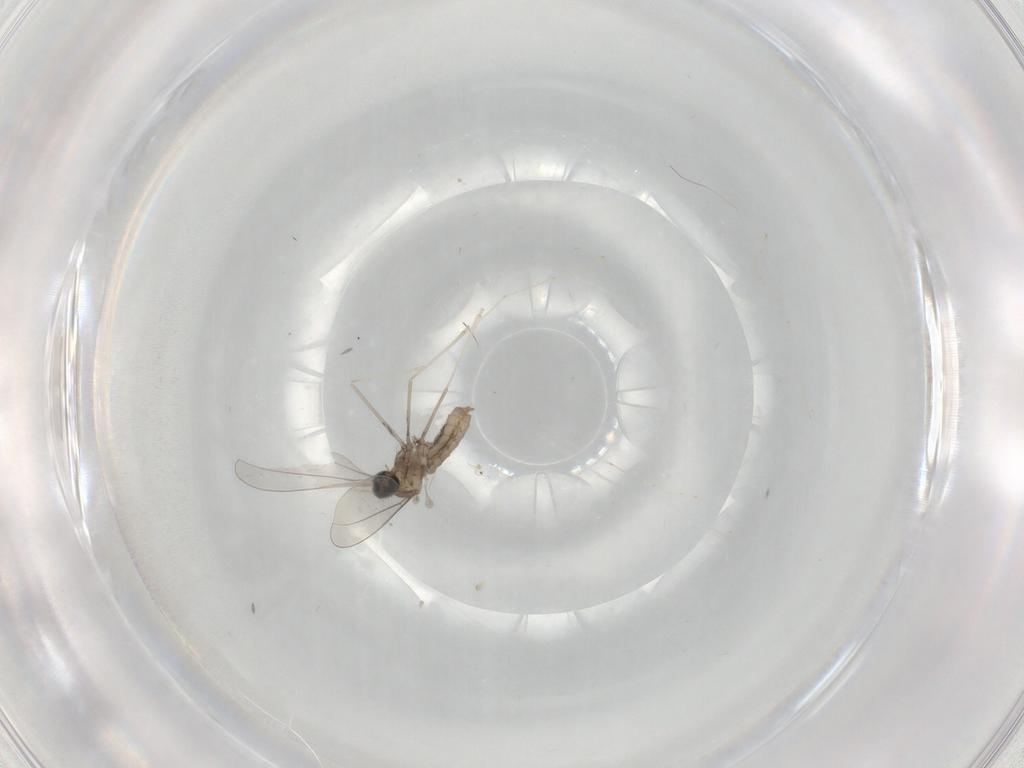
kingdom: Animalia
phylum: Arthropoda
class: Insecta
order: Diptera
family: Cecidomyiidae
